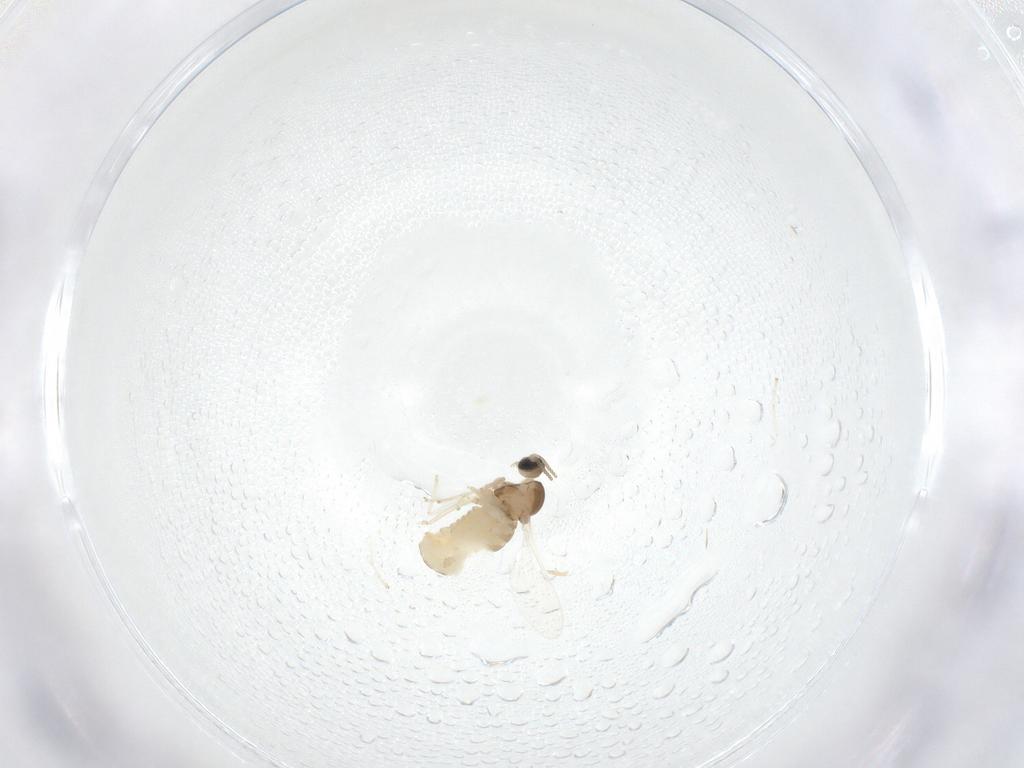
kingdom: Animalia
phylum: Arthropoda
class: Insecta
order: Diptera
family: Cecidomyiidae
